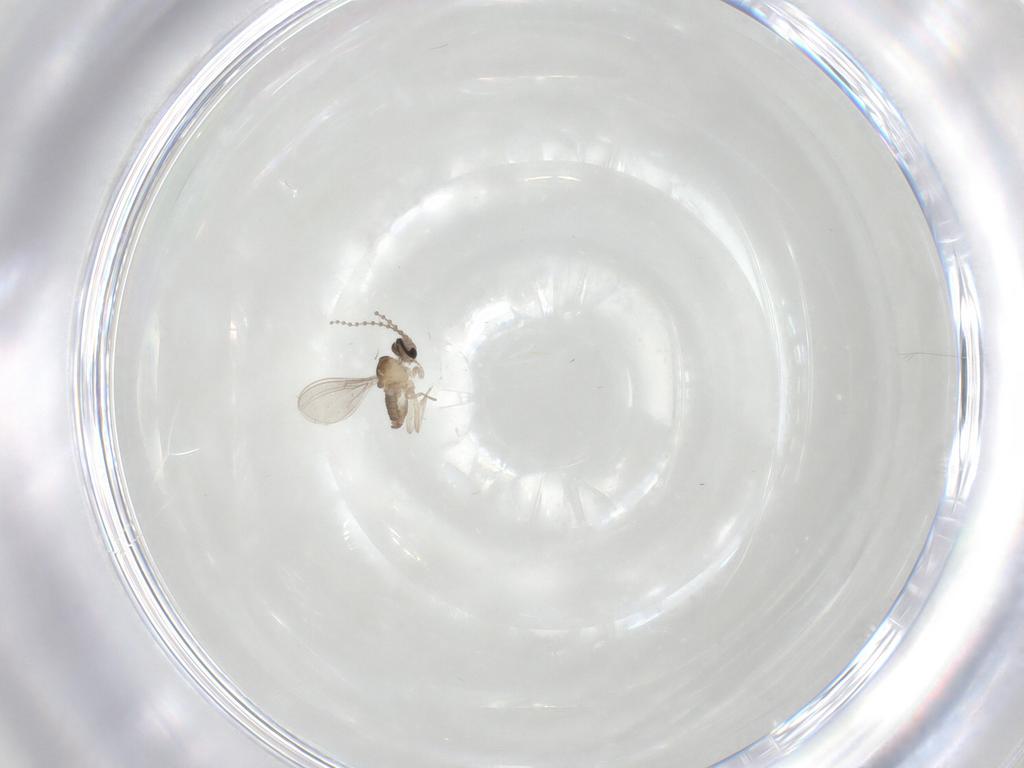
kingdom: Animalia
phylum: Arthropoda
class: Insecta
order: Diptera
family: Cecidomyiidae
